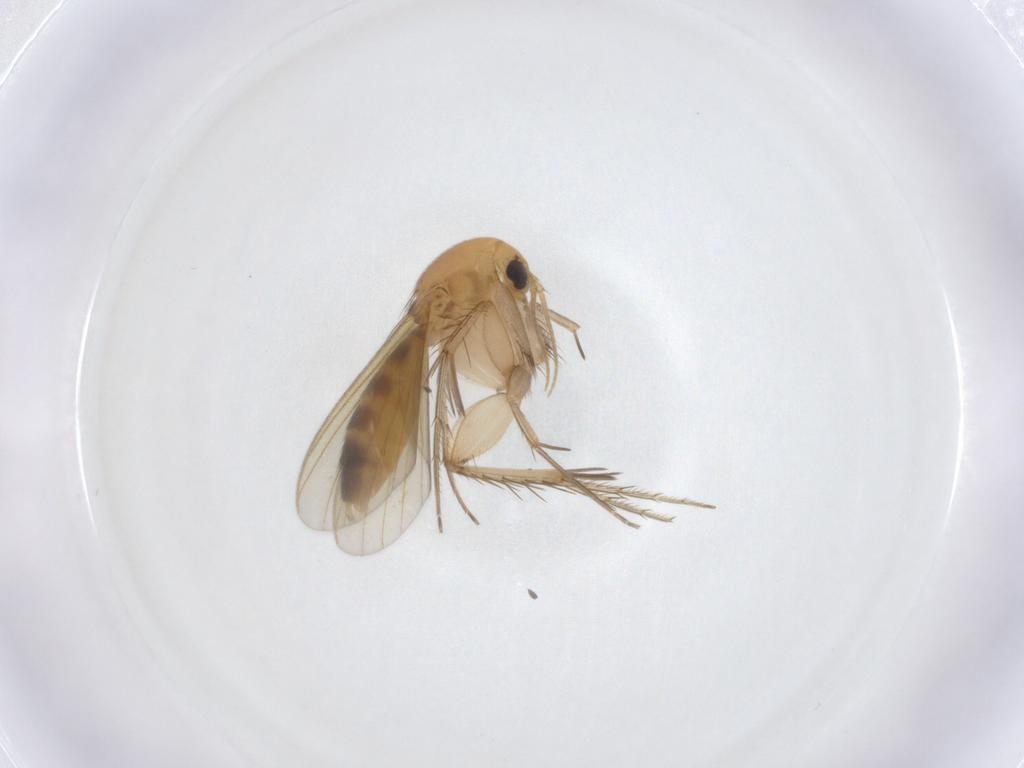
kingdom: Animalia
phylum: Arthropoda
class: Insecta
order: Diptera
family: Mycetophilidae
